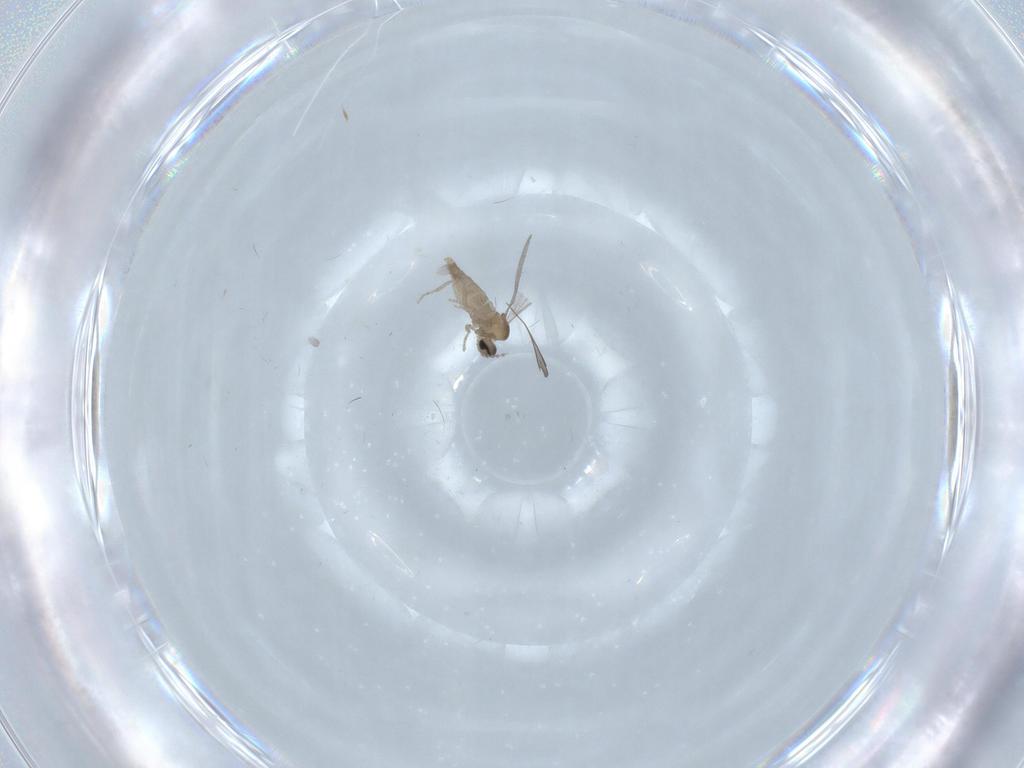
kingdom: Animalia
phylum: Arthropoda
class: Insecta
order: Diptera
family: Cecidomyiidae
